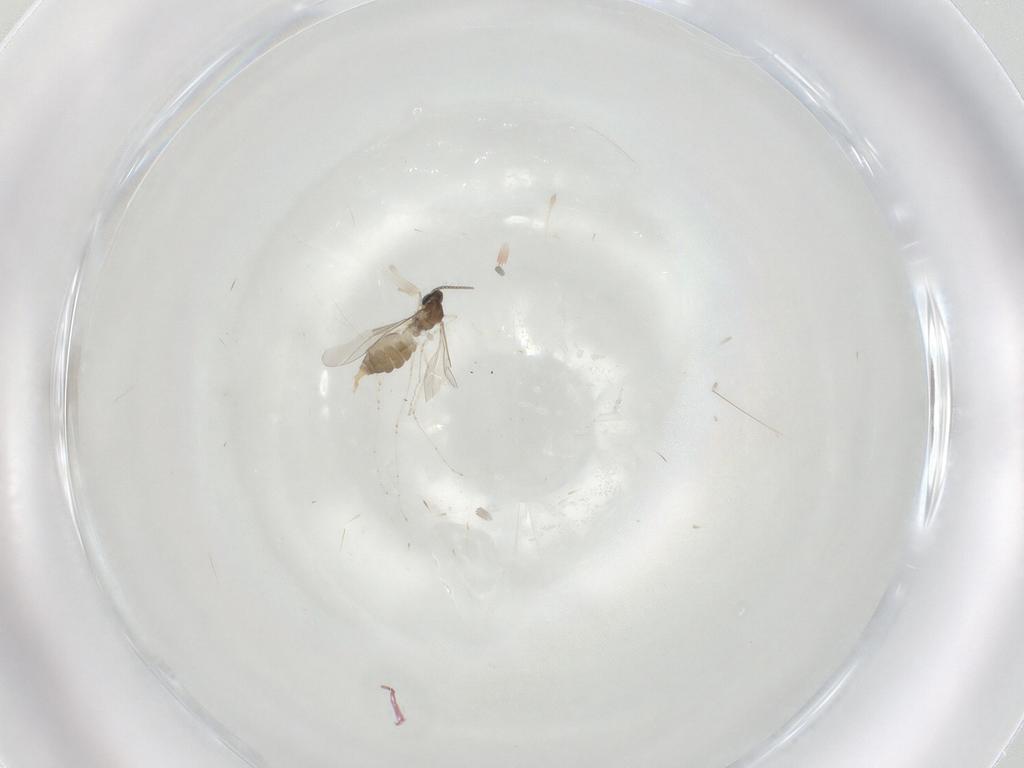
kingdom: Animalia
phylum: Arthropoda
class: Insecta
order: Diptera
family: Cecidomyiidae
